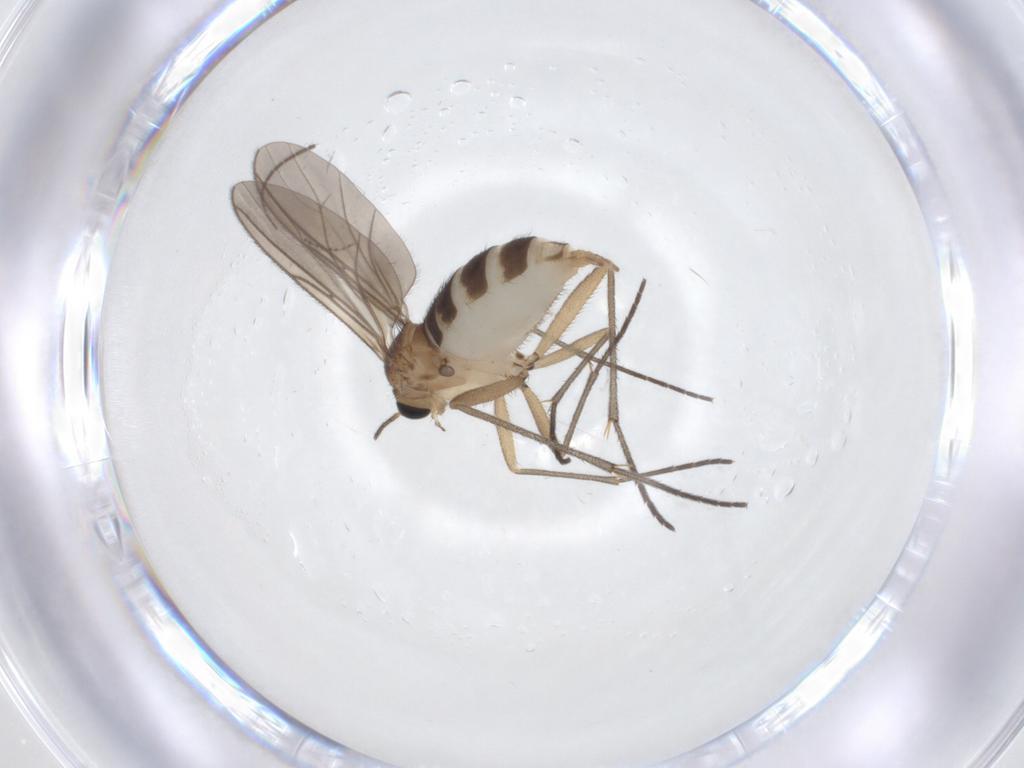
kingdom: Animalia
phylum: Arthropoda
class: Insecta
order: Diptera
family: Sciaridae
